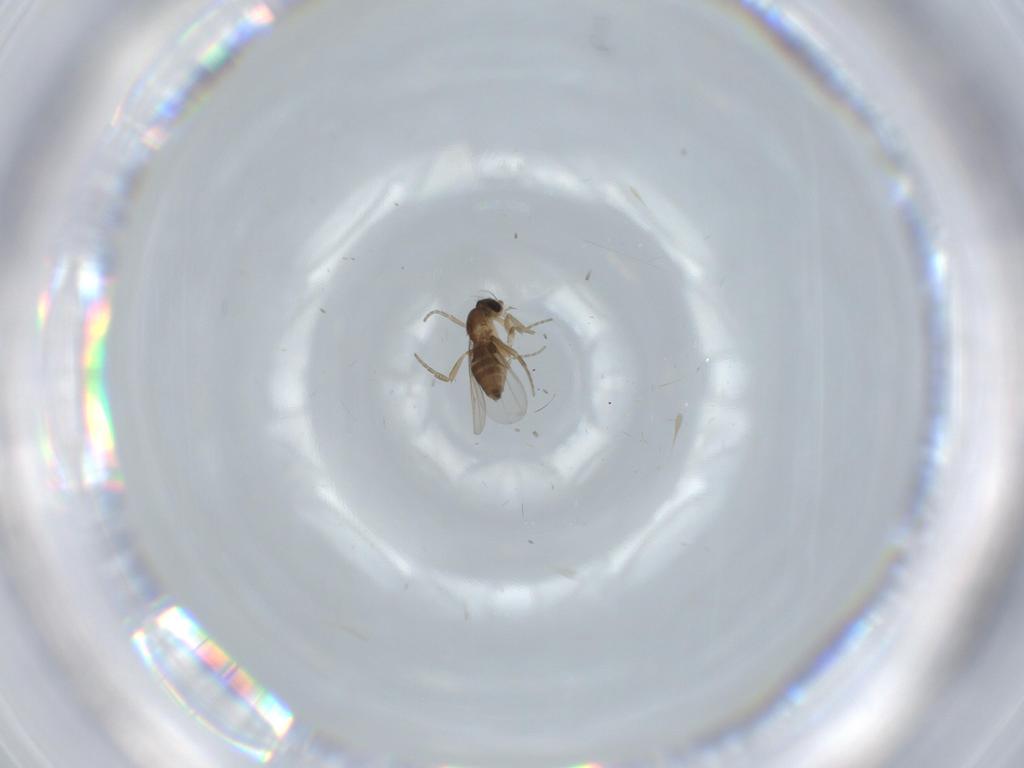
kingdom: Animalia
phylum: Arthropoda
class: Insecta
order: Diptera
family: Phoridae
